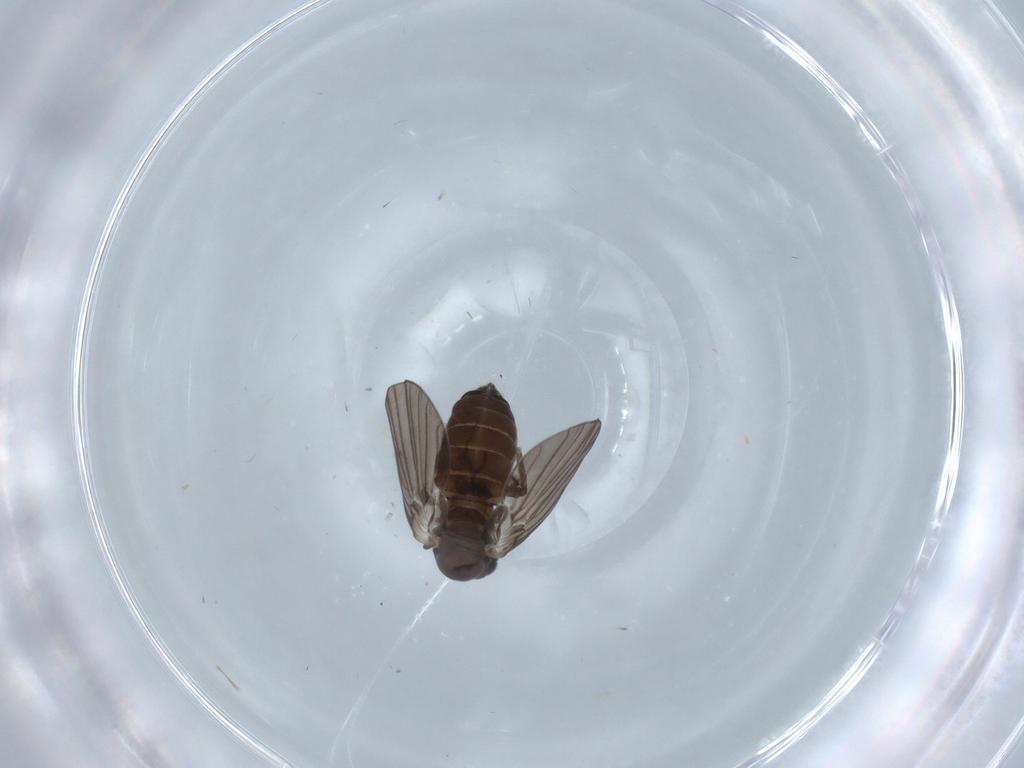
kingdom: Animalia
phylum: Arthropoda
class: Insecta
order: Diptera
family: Psychodidae
